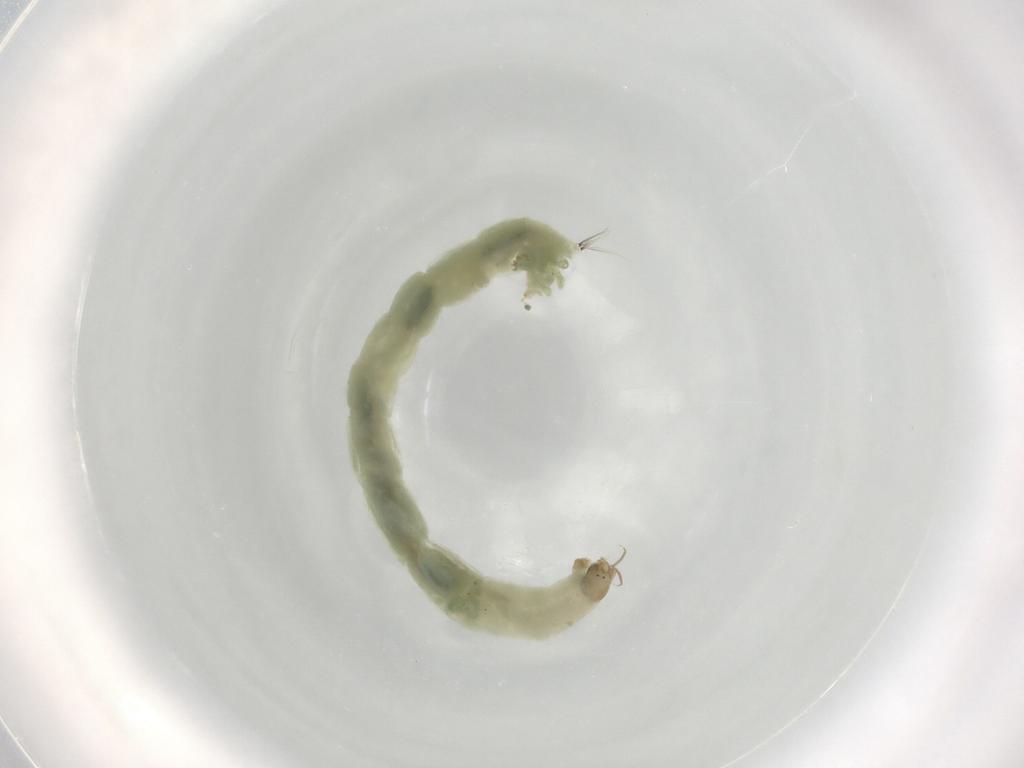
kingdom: Animalia
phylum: Arthropoda
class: Insecta
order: Diptera
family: Chironomidae
